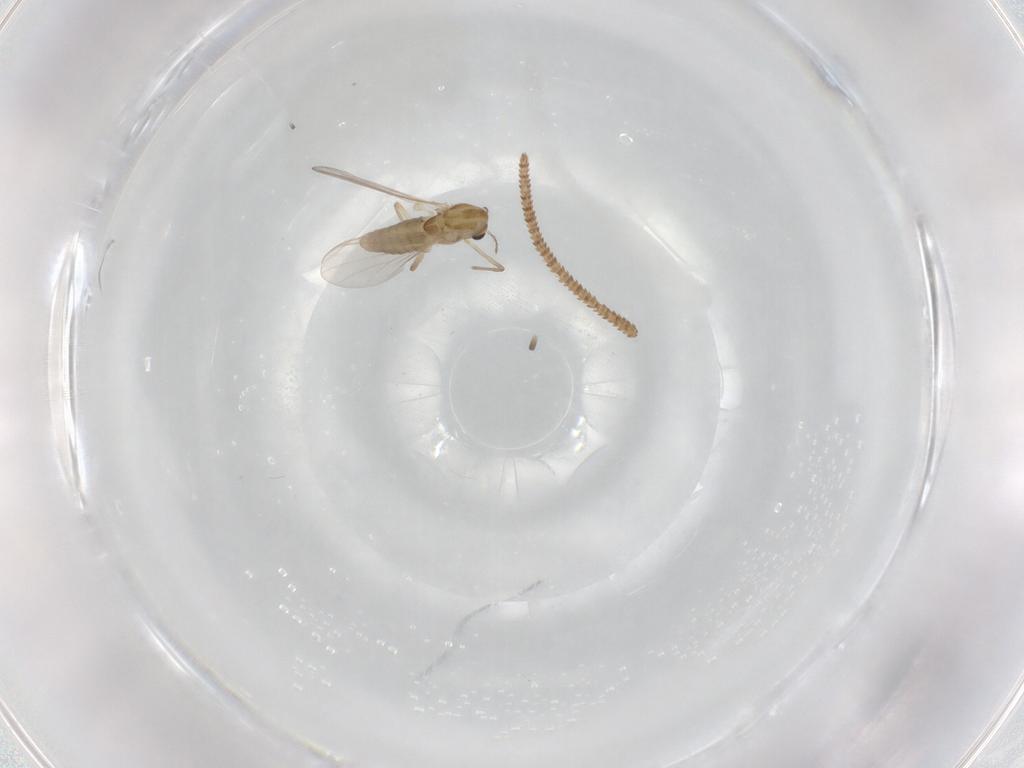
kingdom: Animalia
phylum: Arthropoda
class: Insecta
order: Diptera
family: Chironomidae
